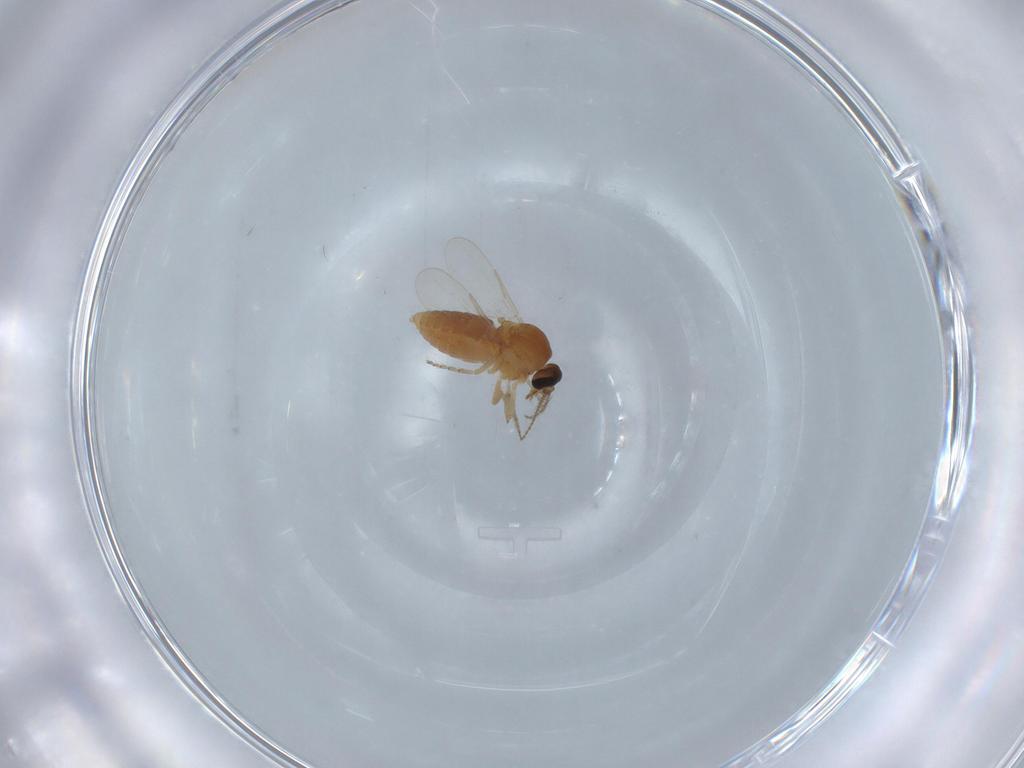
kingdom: Animalia
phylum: Arthropoda
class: Insecta
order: Diptera
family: Ceratopogonidae
